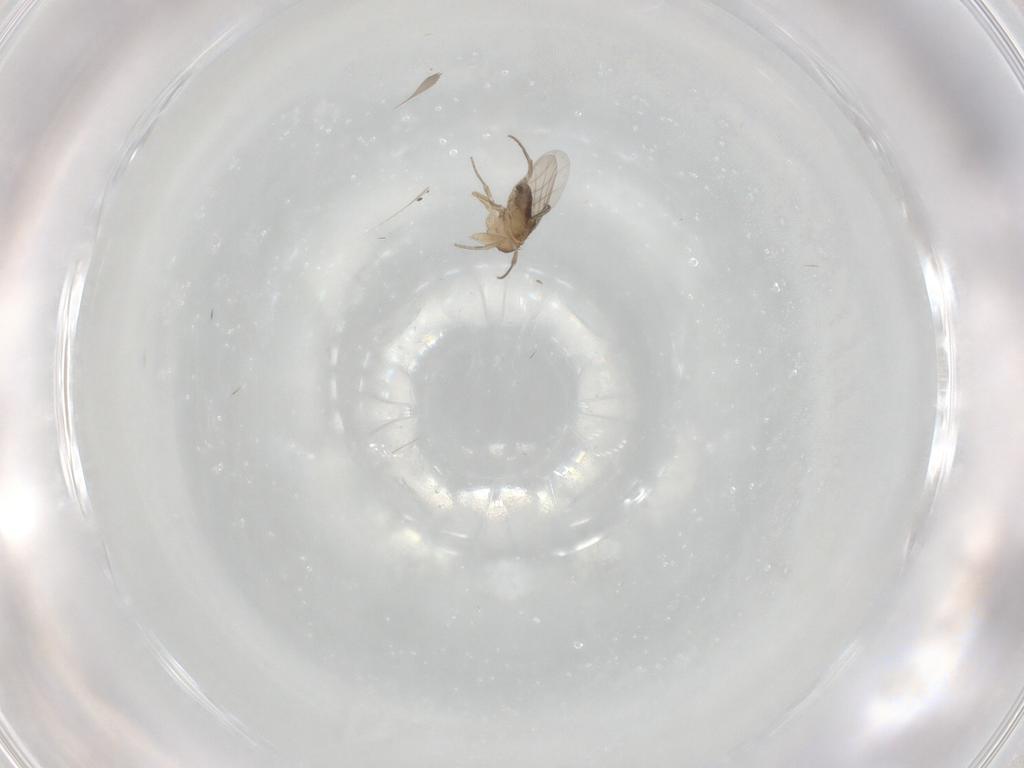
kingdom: Animalia
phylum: Arthropoda
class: Insecta
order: Diptera
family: Phoridae
